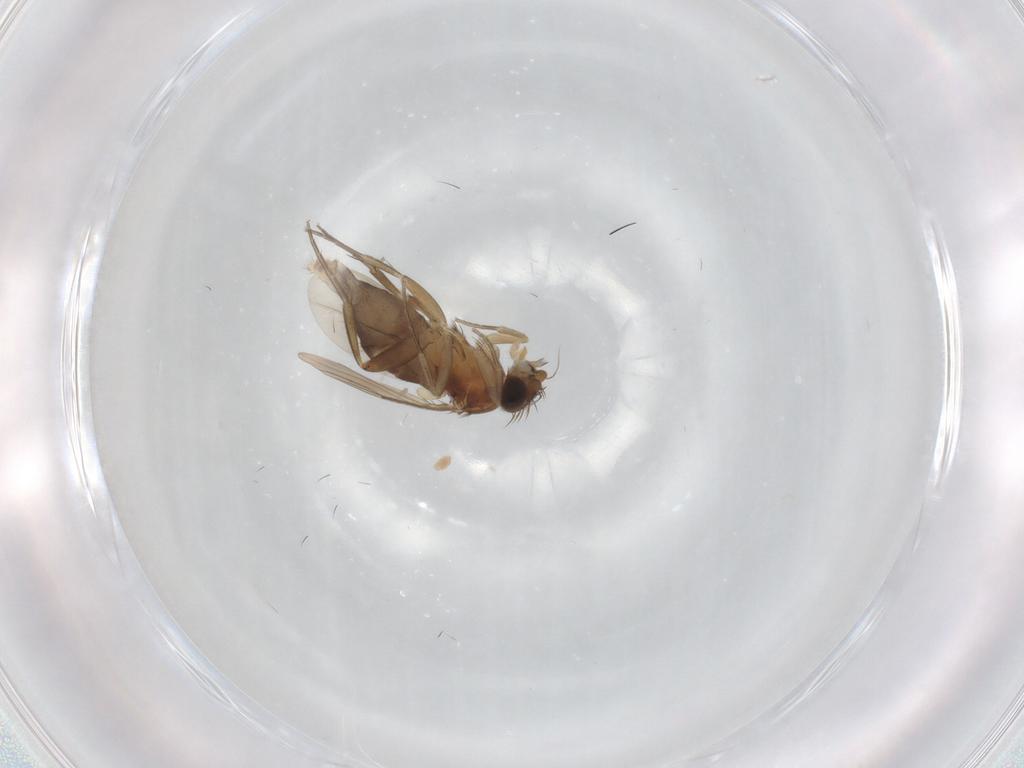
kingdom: Animalia
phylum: Arthropoda
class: Insecta
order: Diptera
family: Phoridae
